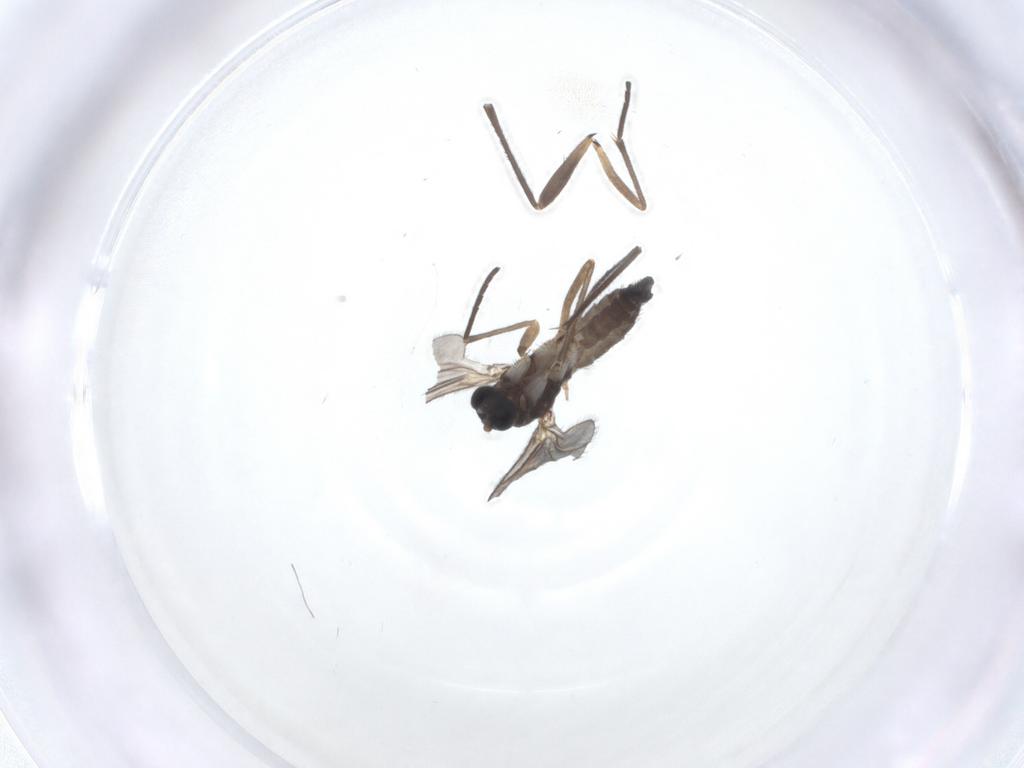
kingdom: Animalia
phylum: Arthropoda
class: Insecta
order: Diptera
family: Sciaridae
